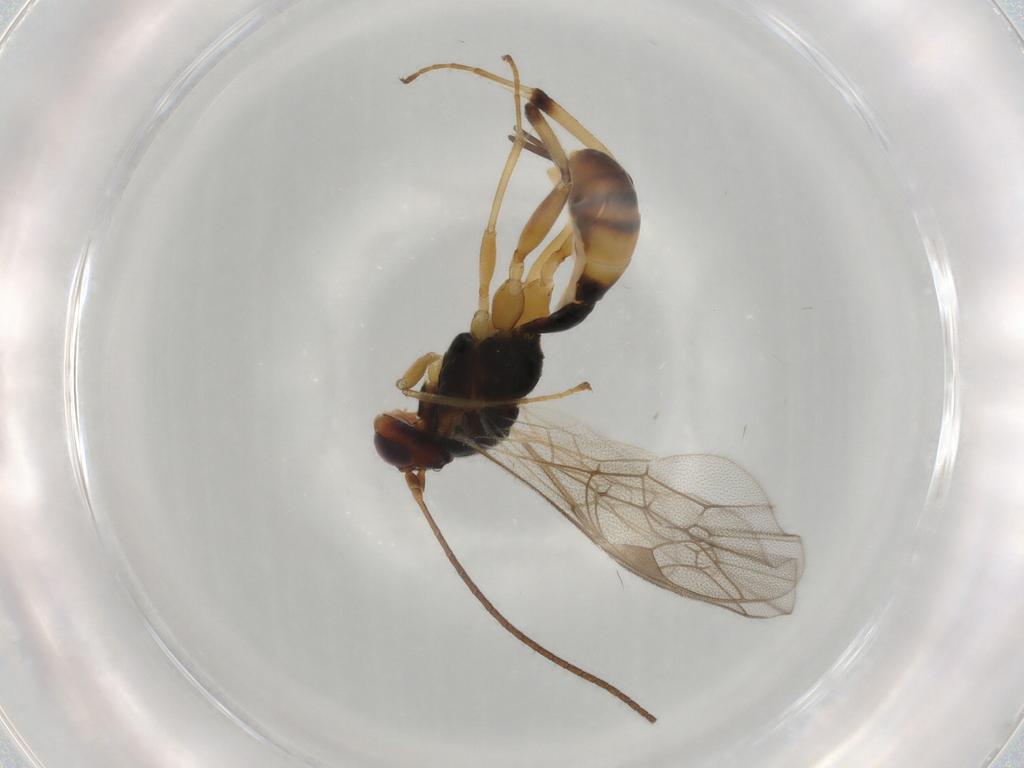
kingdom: Animalia
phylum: Arthropoda
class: Insecta
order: Hymenoptera
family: Ichneumonidae
